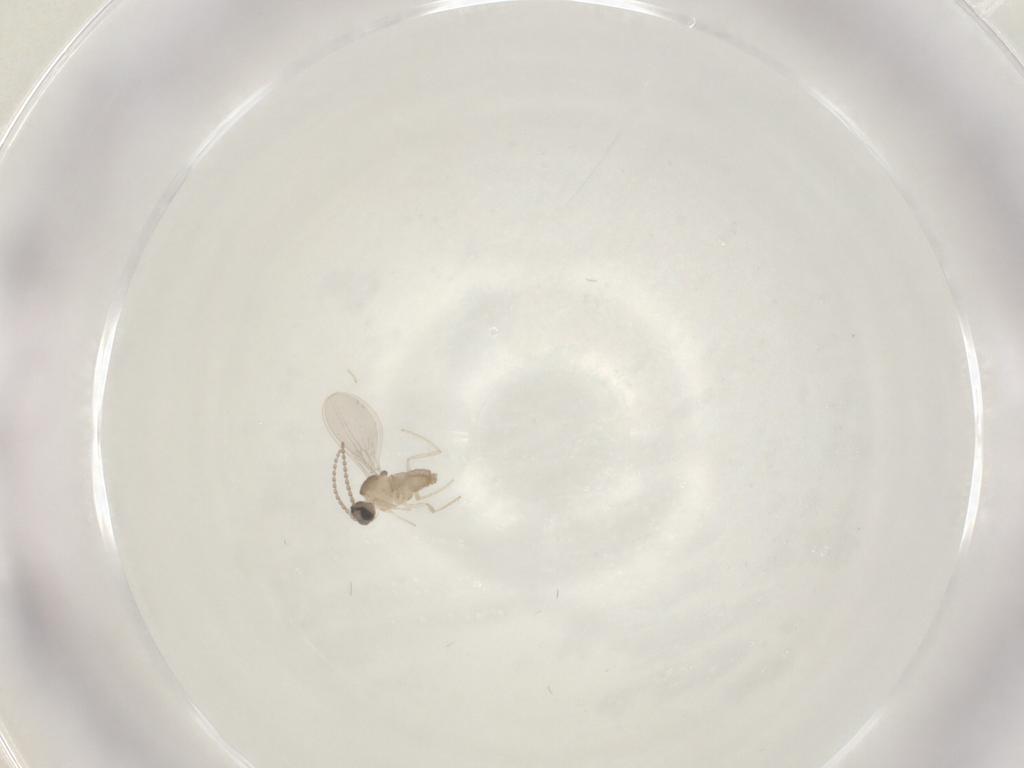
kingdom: Animalia
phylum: Arthropoda
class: Insecta
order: Diptera
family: Cecidomyiidae
